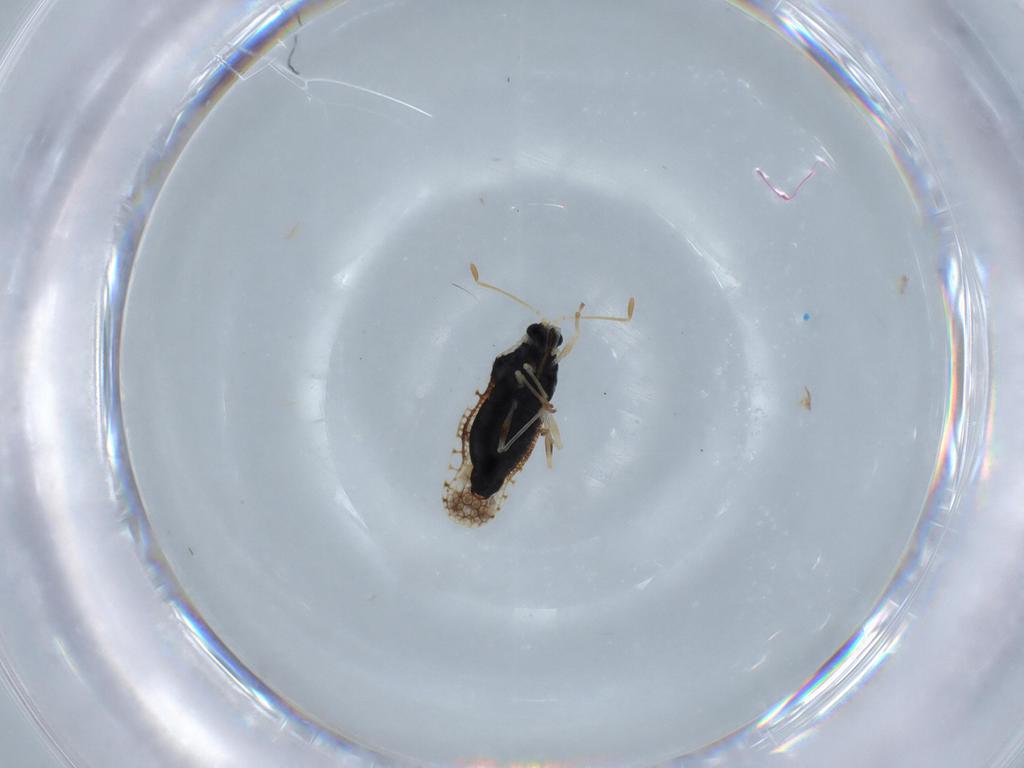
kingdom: Animalia
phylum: Arthropoda
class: Insecta
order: Hemiptera
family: Tingidae
